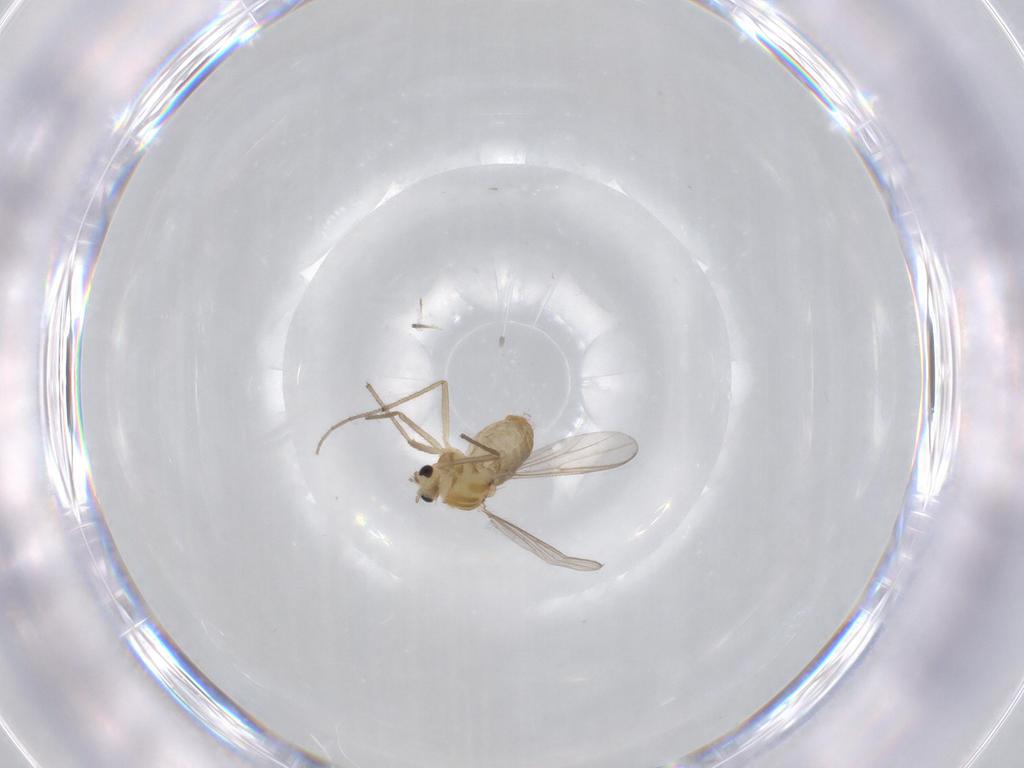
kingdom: Animalia
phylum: Arthropoda
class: Insecta
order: Diptera
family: Chironomidae
